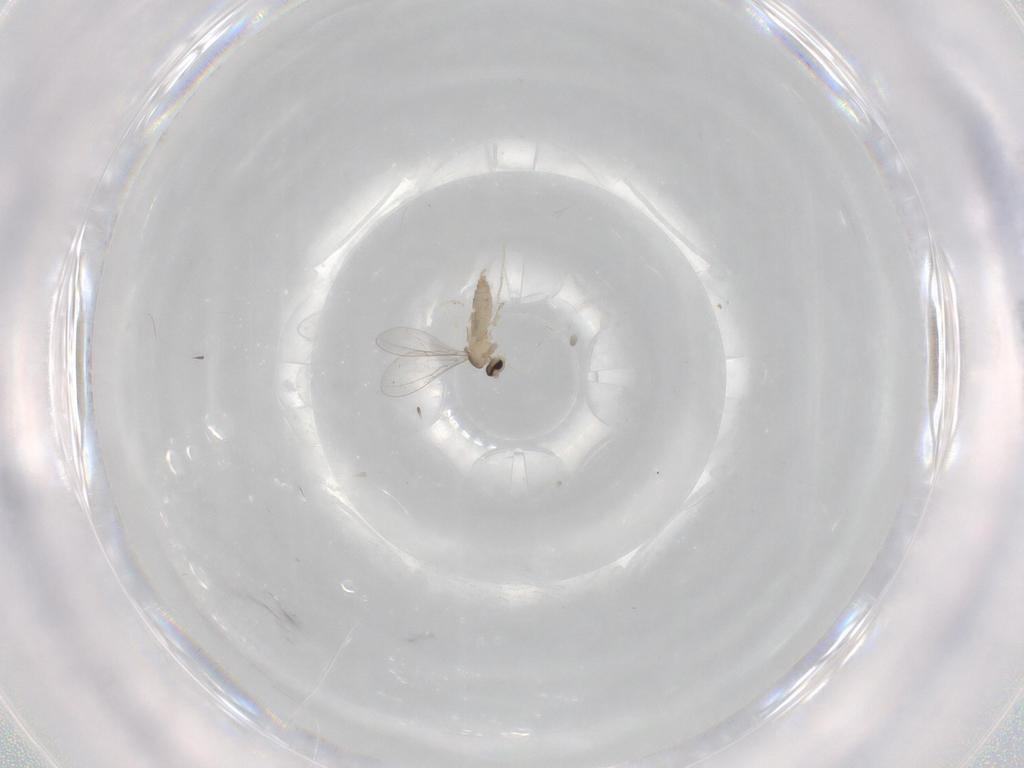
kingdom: Animalia
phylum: Arthropoda
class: Insecta
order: Diptera
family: Cecidomyiidae
